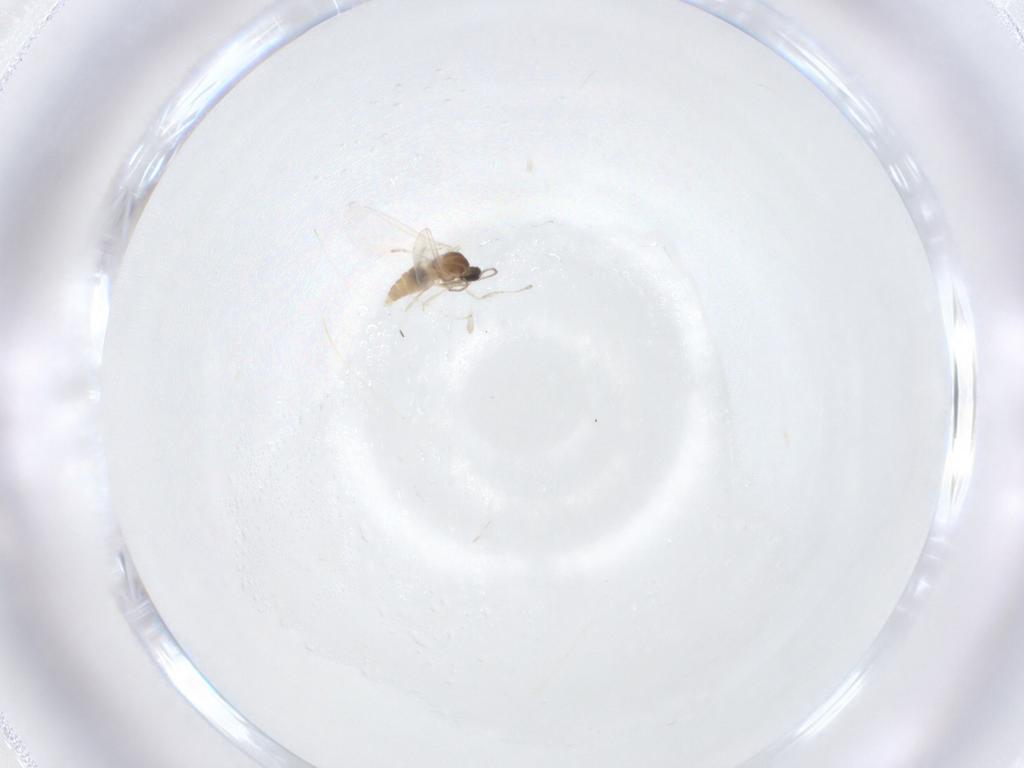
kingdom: Animalia
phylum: Arthropoda
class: Insecta
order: Diptera
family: Cecidomyiidae
